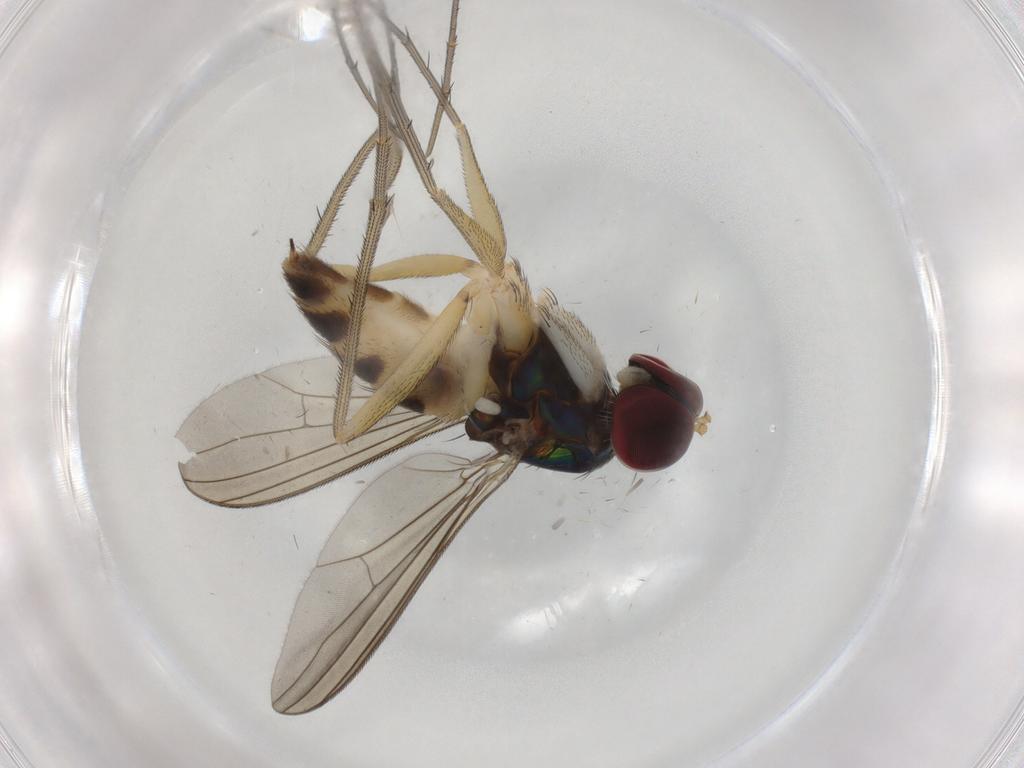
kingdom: Animalia
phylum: Arthropoda
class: Insecta
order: Diptera
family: Dolichopodidae
